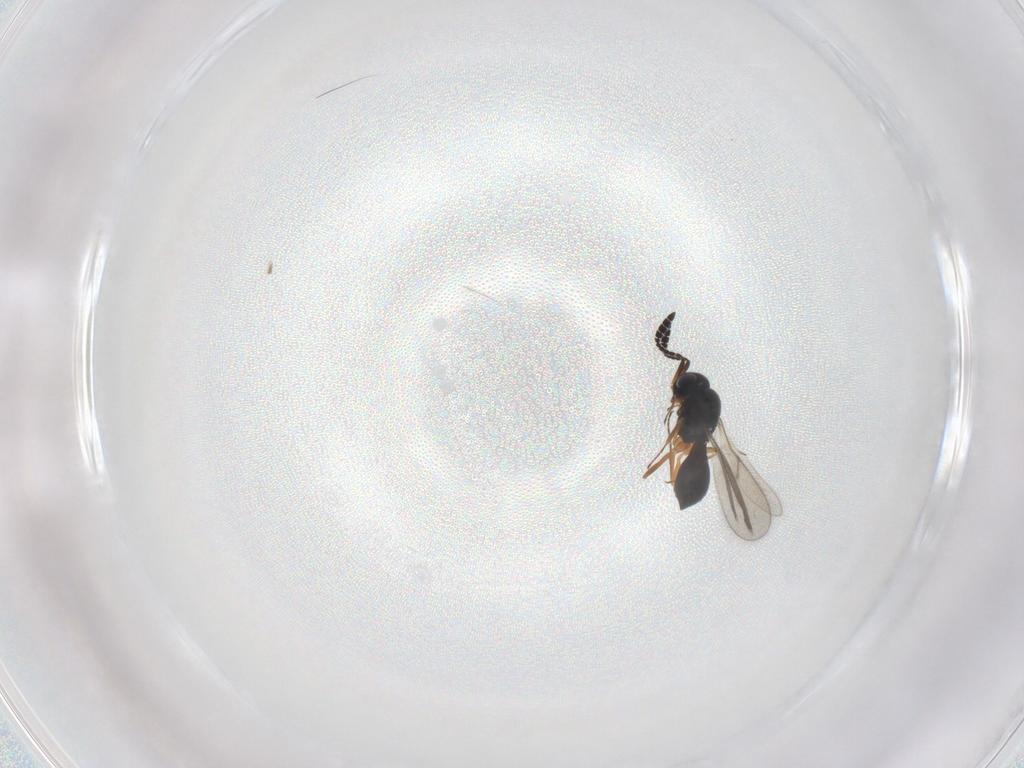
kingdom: Animalia
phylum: Arthropoda
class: Insecta
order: Hymenoptera
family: Scelionidae
